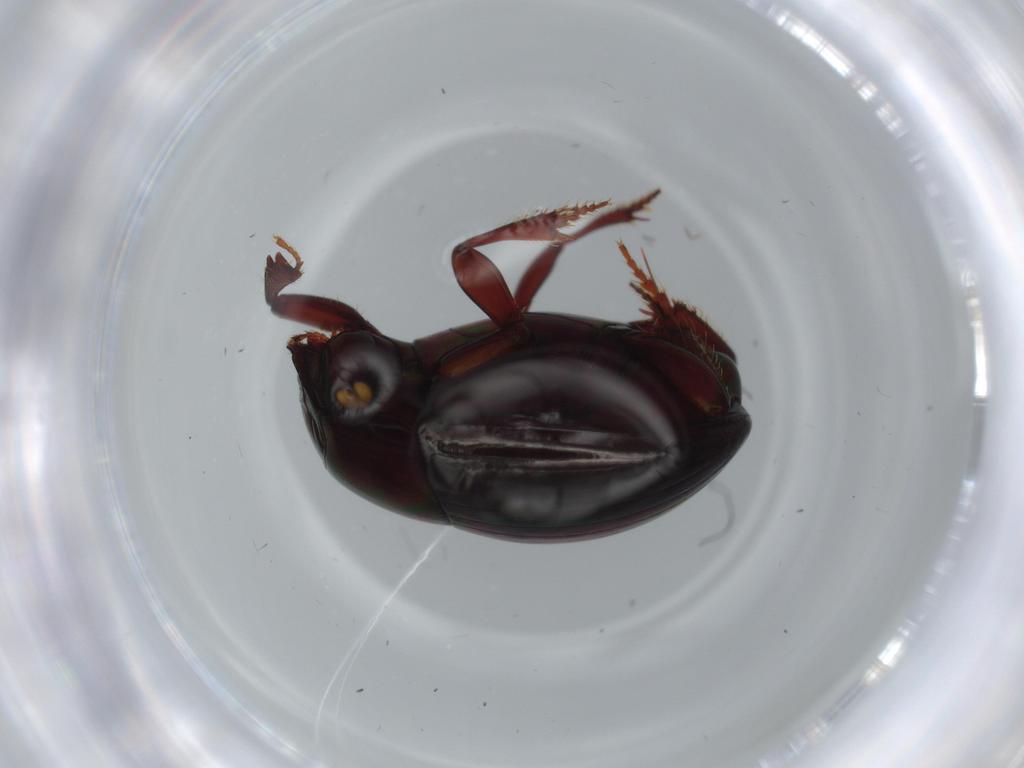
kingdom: Animalia
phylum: Arthropoda
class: Insecta
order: Coleoptera
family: Scarabaeidae
